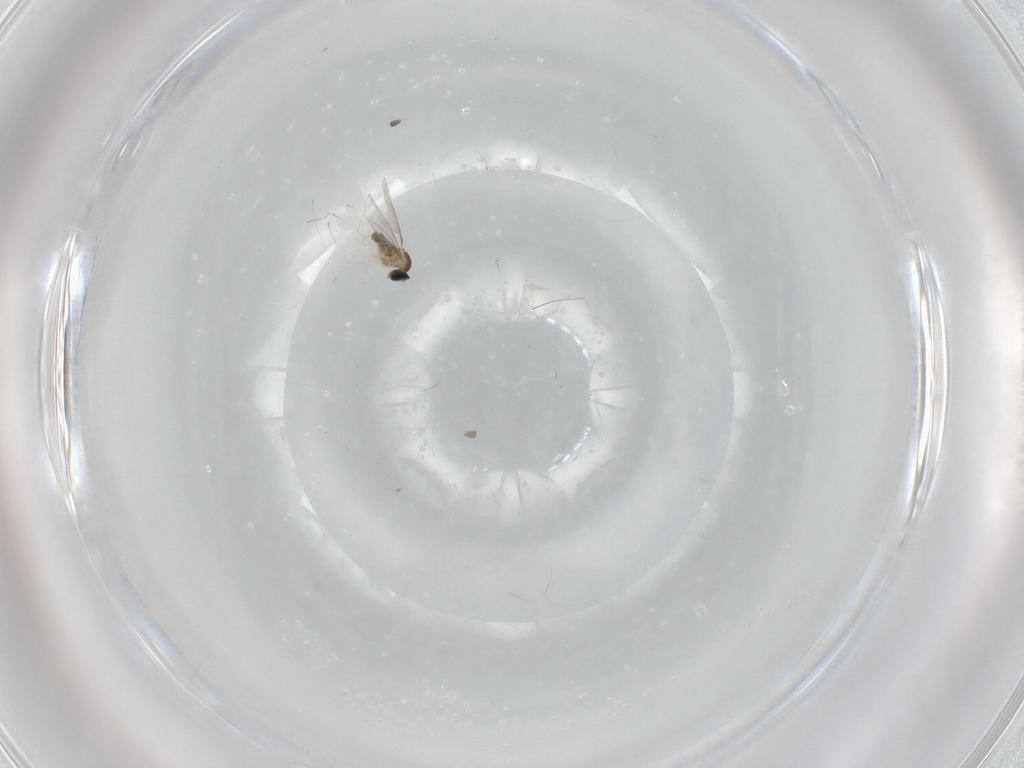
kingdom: Animalia
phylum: Arthropoda
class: Insecta
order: Diptera
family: Cecidomyiidae
